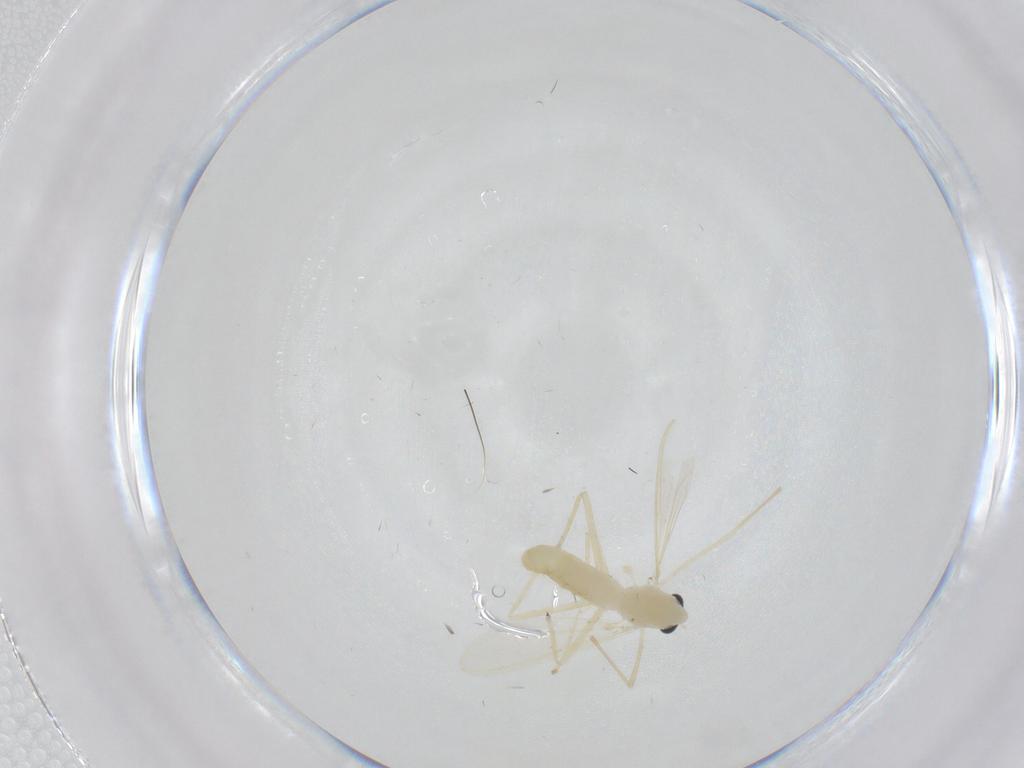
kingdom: Animalia
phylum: Arthropoda
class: Insecta
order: Diptera
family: Chironomidae
